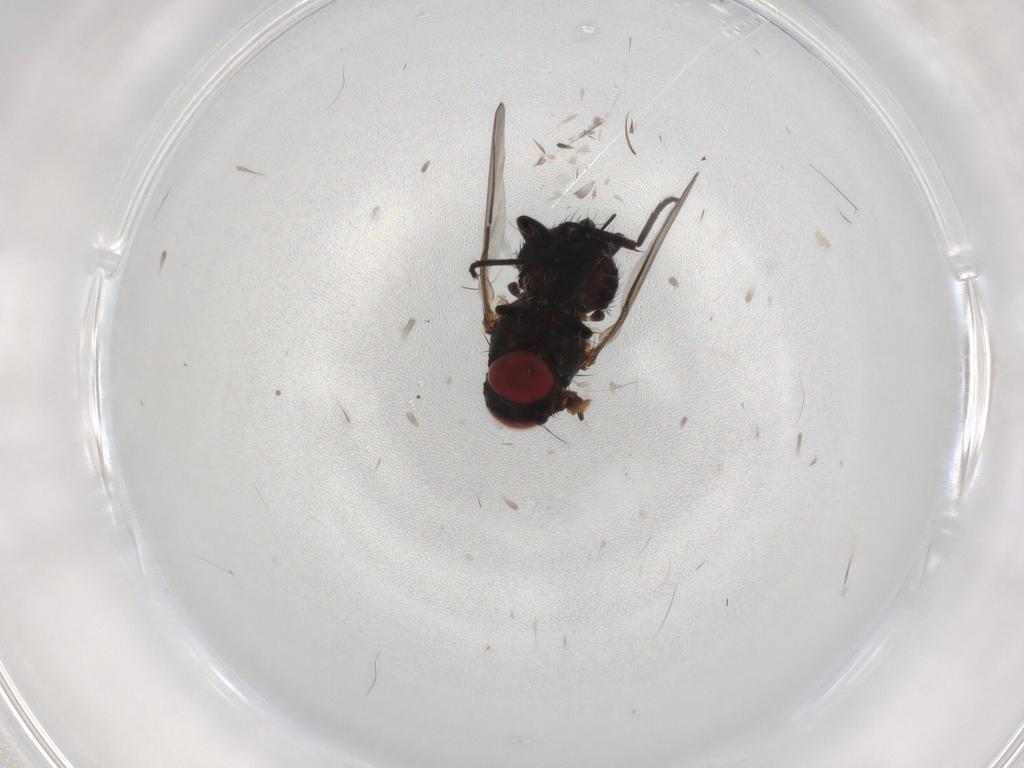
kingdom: Animalia
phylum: Arthropoda
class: Insecta
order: Diptera
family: Agromyzidae
